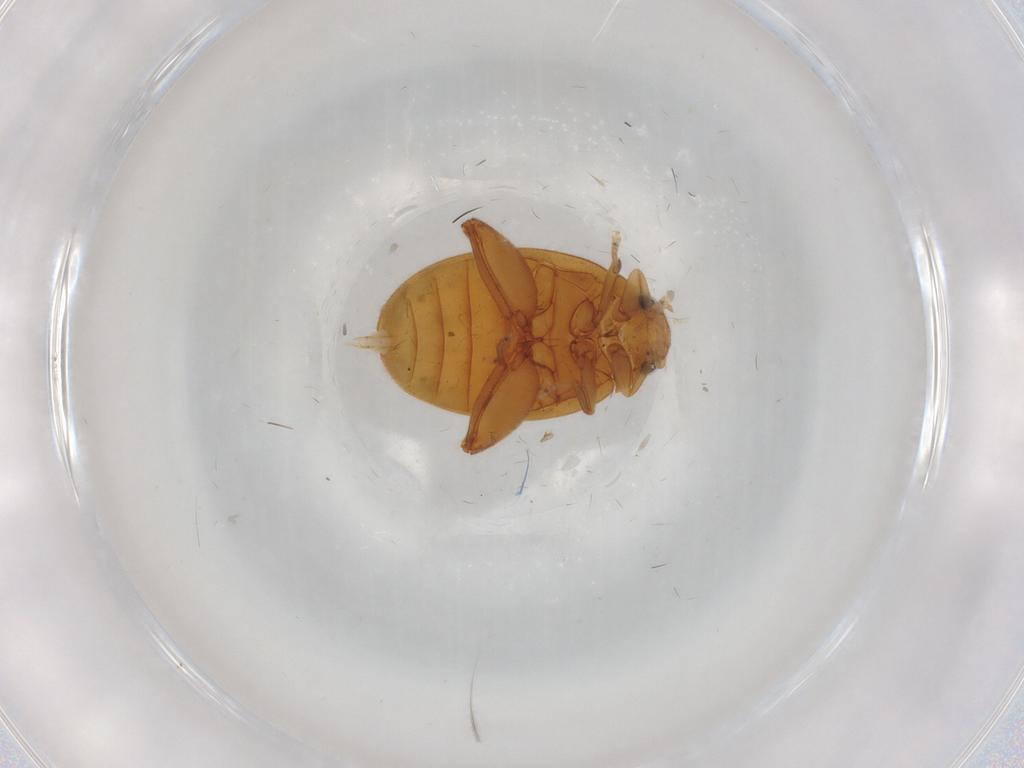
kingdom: Animalia
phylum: Arthropoda
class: Insecta
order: Coleoptera
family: Scirtidae
